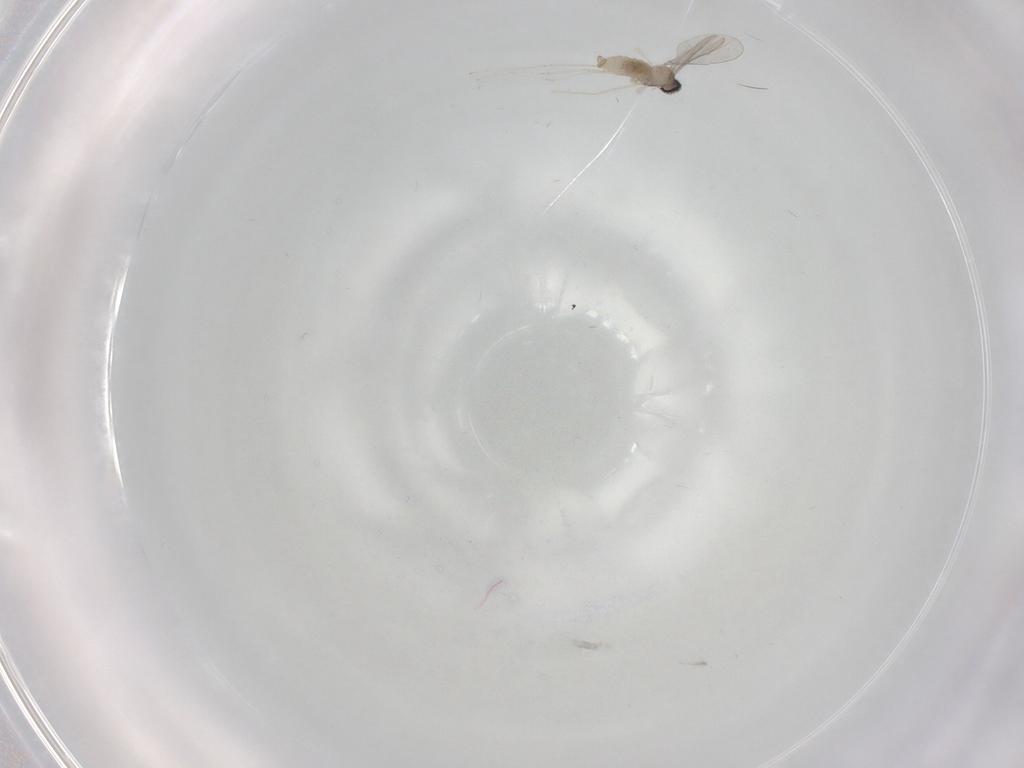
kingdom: Animalia
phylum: Arthropoda
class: Insecta
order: Diptera
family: Cecidomyiidae
